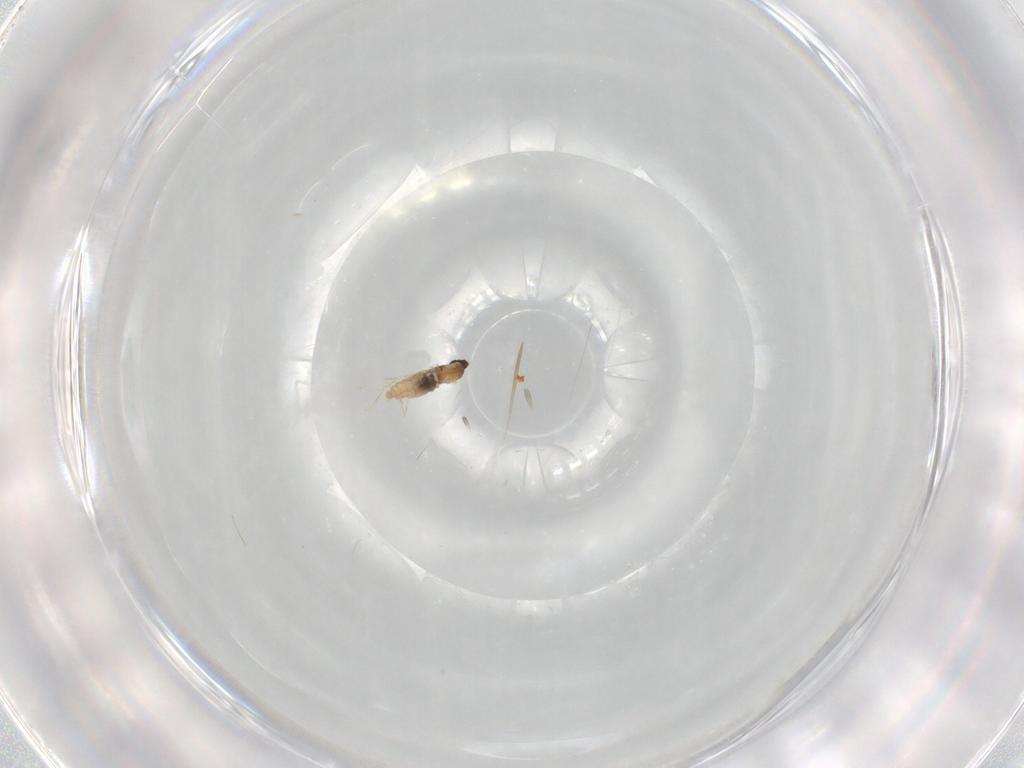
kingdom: Animalia
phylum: Arthropoda
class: Insecta
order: Diptera
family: Cecidomyiidae
